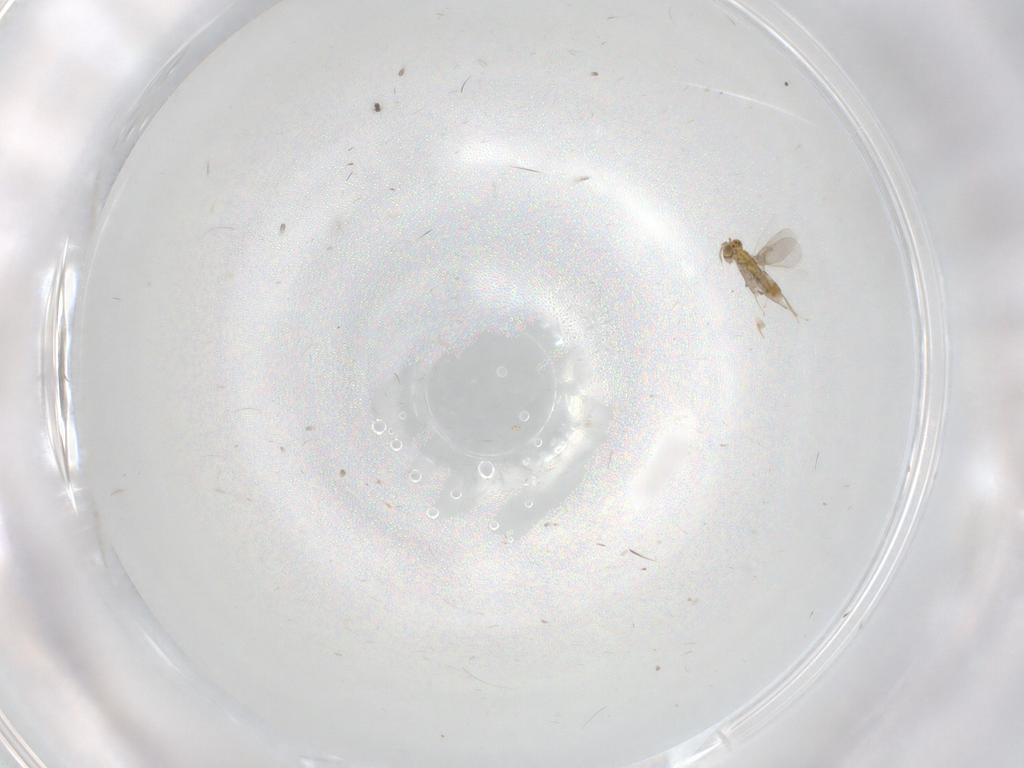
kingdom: Animalia
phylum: Arthropoda
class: Insecta
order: Hymenoptera
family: Aphelinidae
